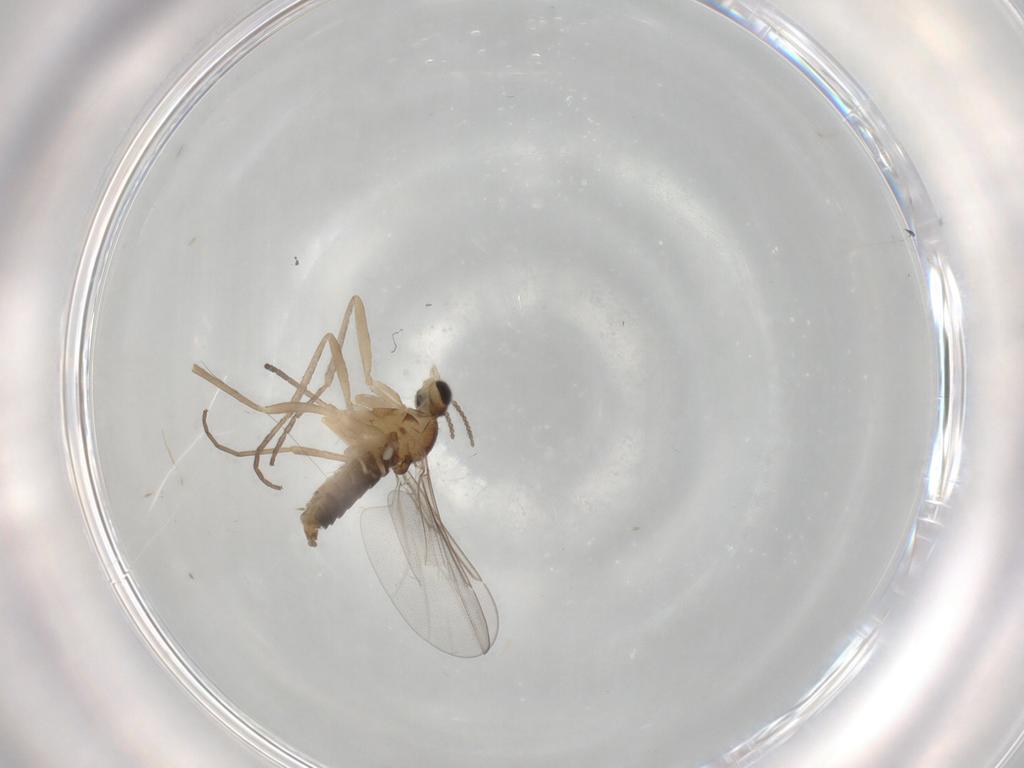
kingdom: Animalia
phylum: Arthropoda
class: Insecta
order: Diptera
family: Cecidomyiidae
